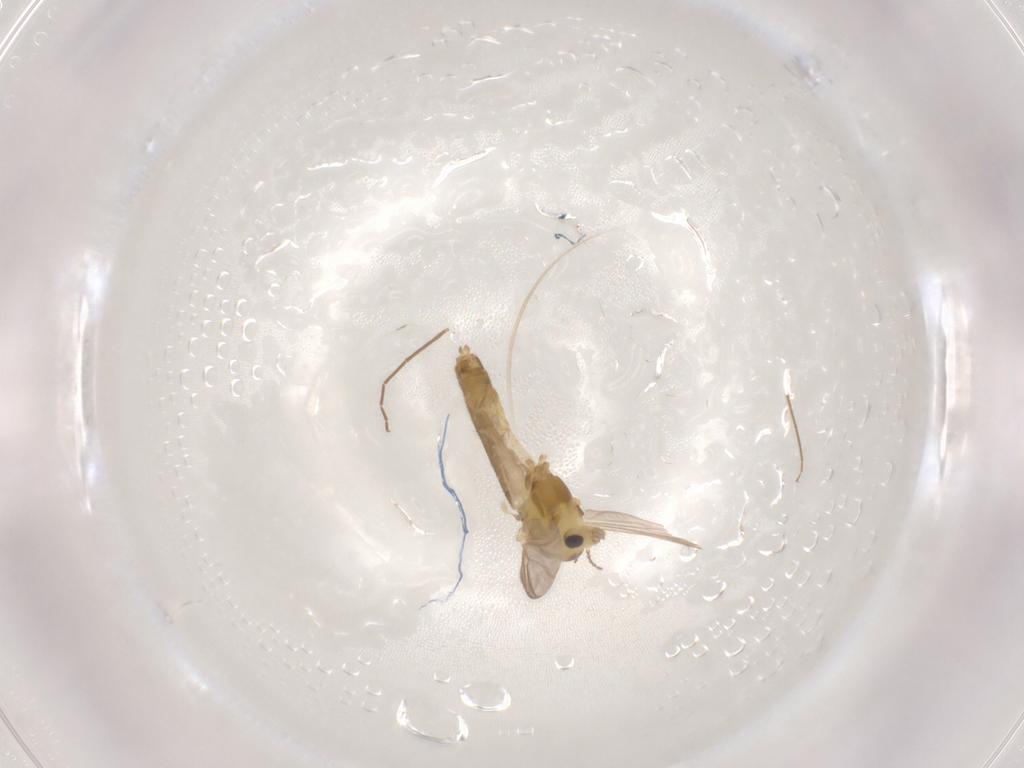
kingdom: Animalia
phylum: Arthropoda
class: Insecta
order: Diptera
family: Chironomidae
